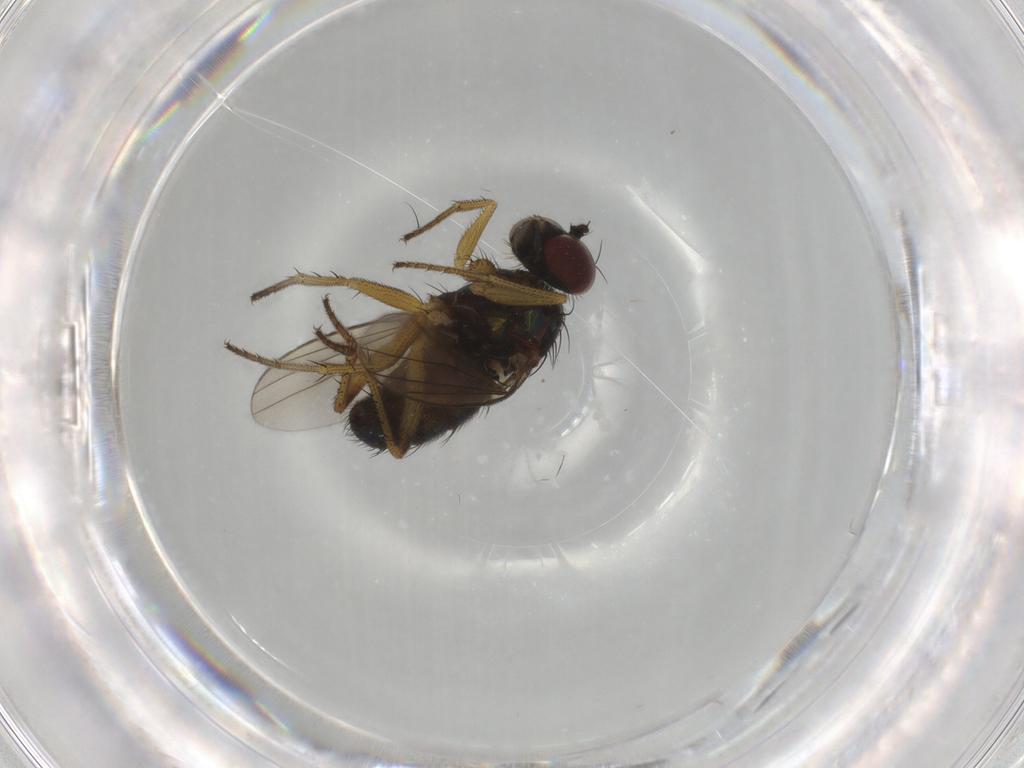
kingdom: Animalia
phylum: Arthropoda
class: Insecta
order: Diptera
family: Dolichopodidae
